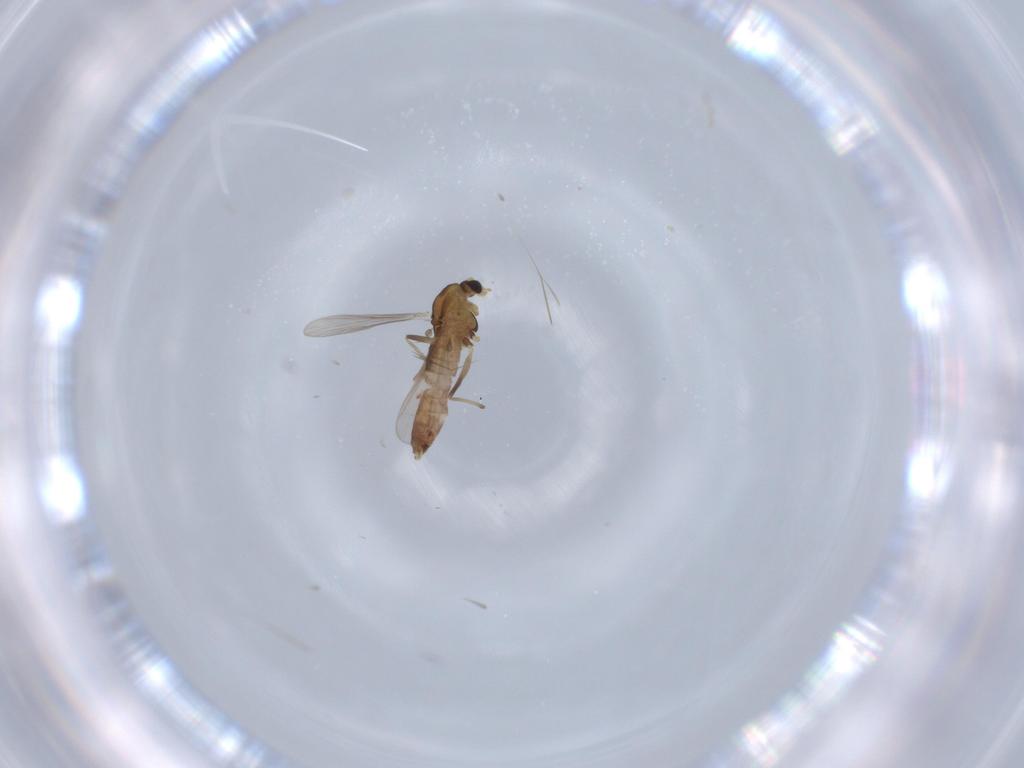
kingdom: Animalia
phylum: Arthropoda
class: Insecta
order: Diptera
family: Chironomidae
